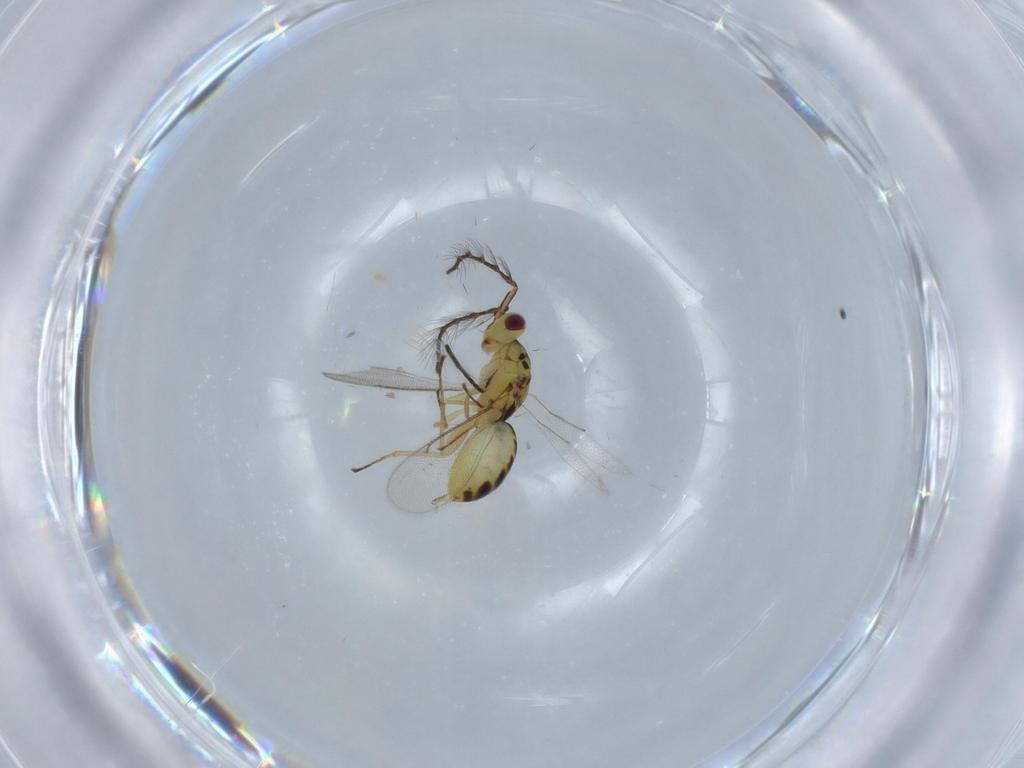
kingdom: Animalia
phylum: Arthropoda
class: Insecta
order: Hymenoptera
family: Eulophidae
